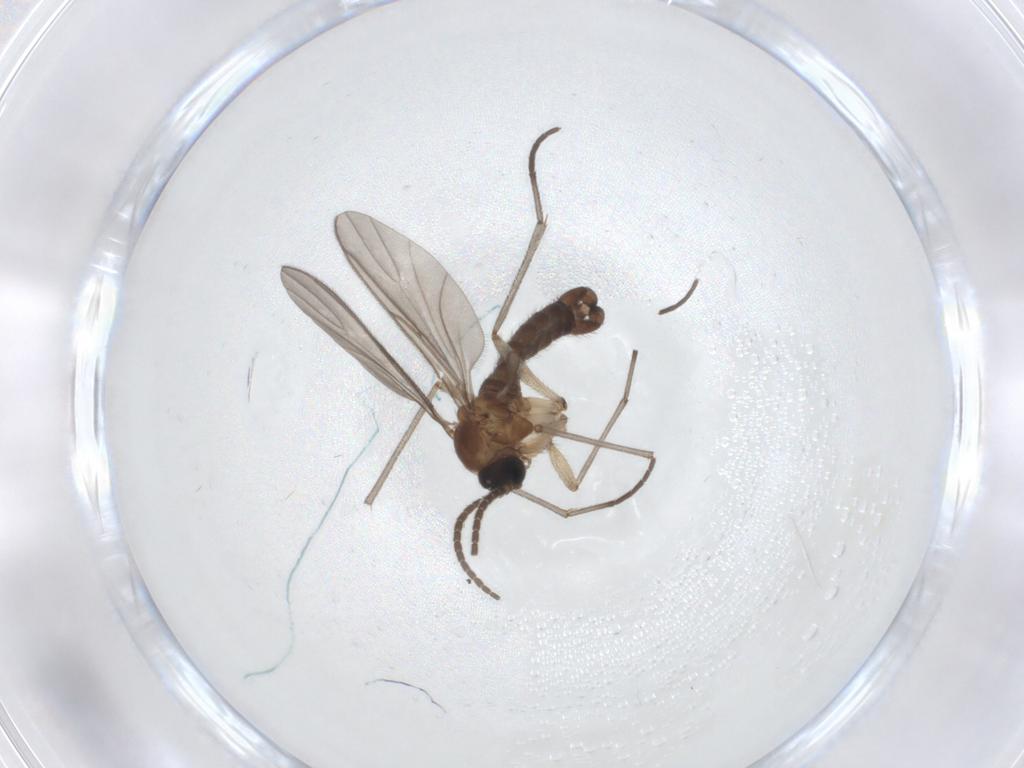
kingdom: Animalia
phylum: Arthropoda
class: Insecta
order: Diptera
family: Sciaridae
